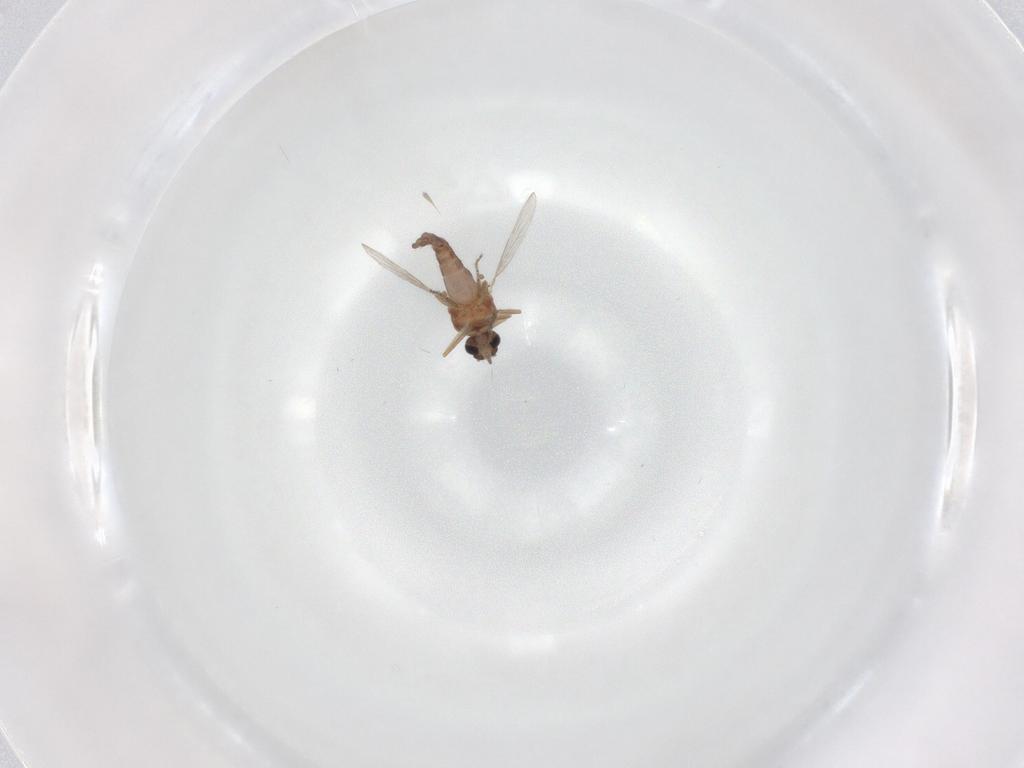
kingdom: Animalia
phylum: Arthropoda
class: Insecta
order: Diptera
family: Ceratopogonidae
